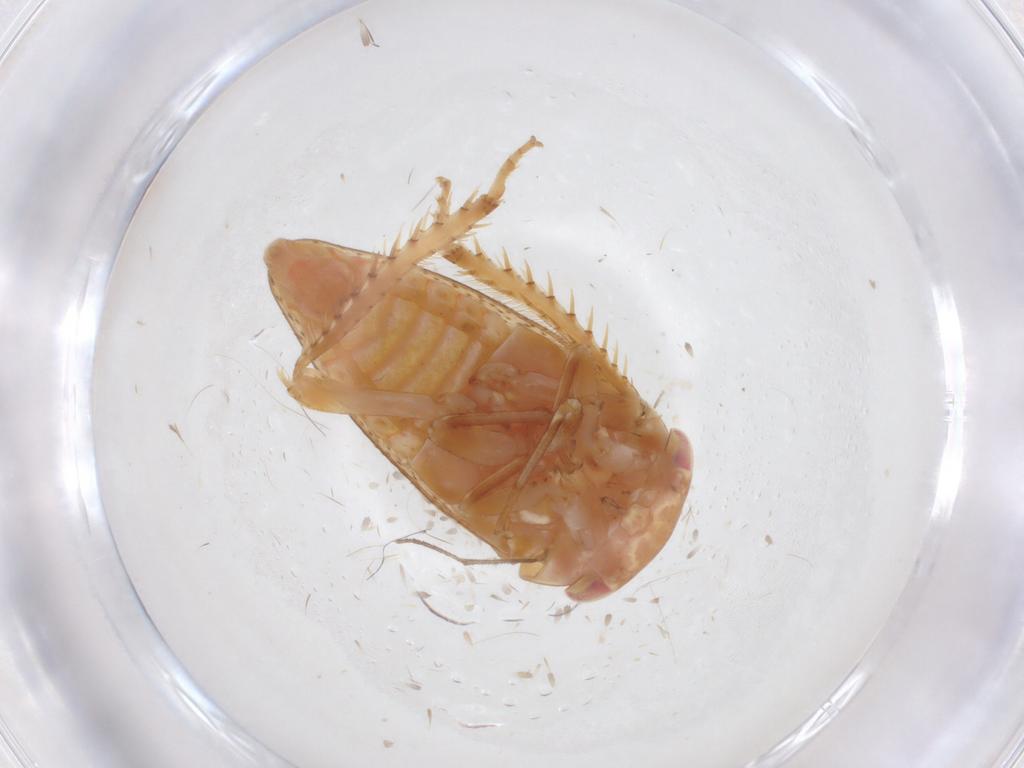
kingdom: Animalia
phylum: Arthropoda
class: Insecta
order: Hemiptera
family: Cicadellidae
